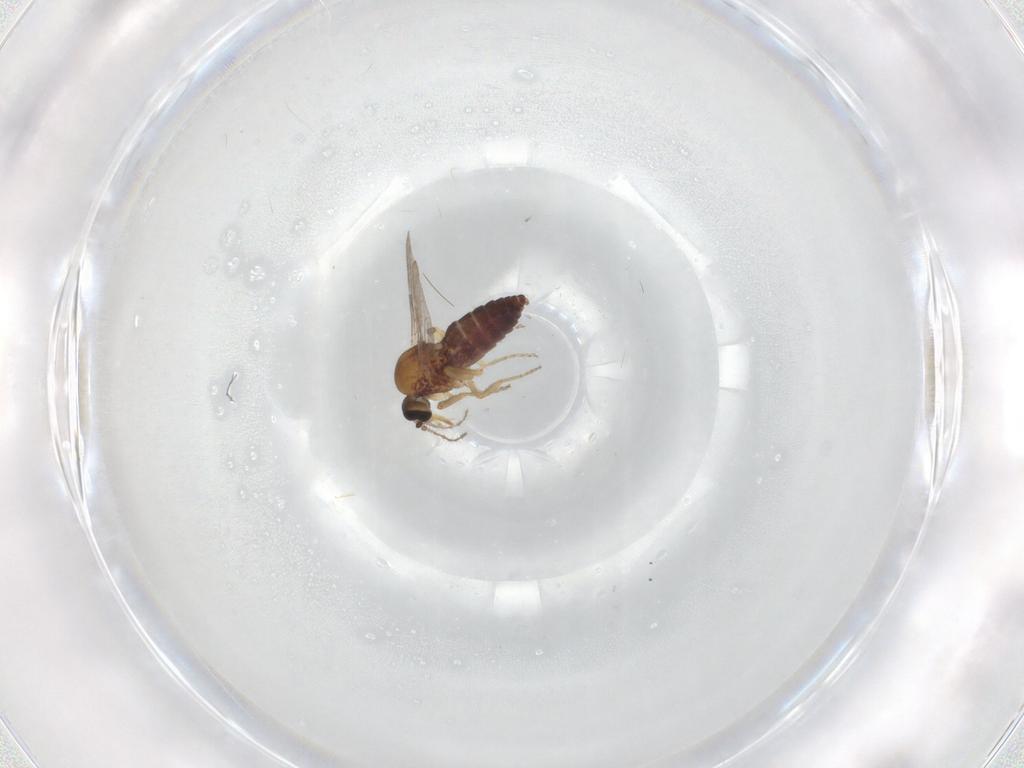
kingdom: Animalia
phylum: Arthropoda
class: Insecta
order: Diptera
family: Ceratopogonidae
